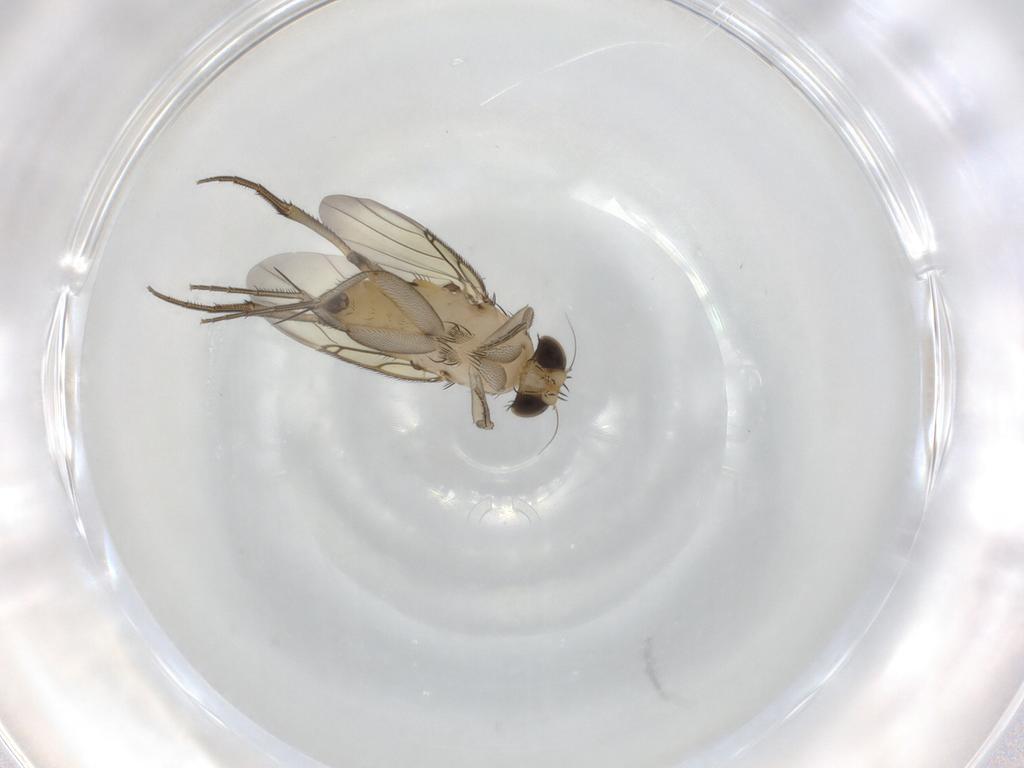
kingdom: Animalia
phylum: Arthropoda
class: Insecta
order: Diptera
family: Phoridae
